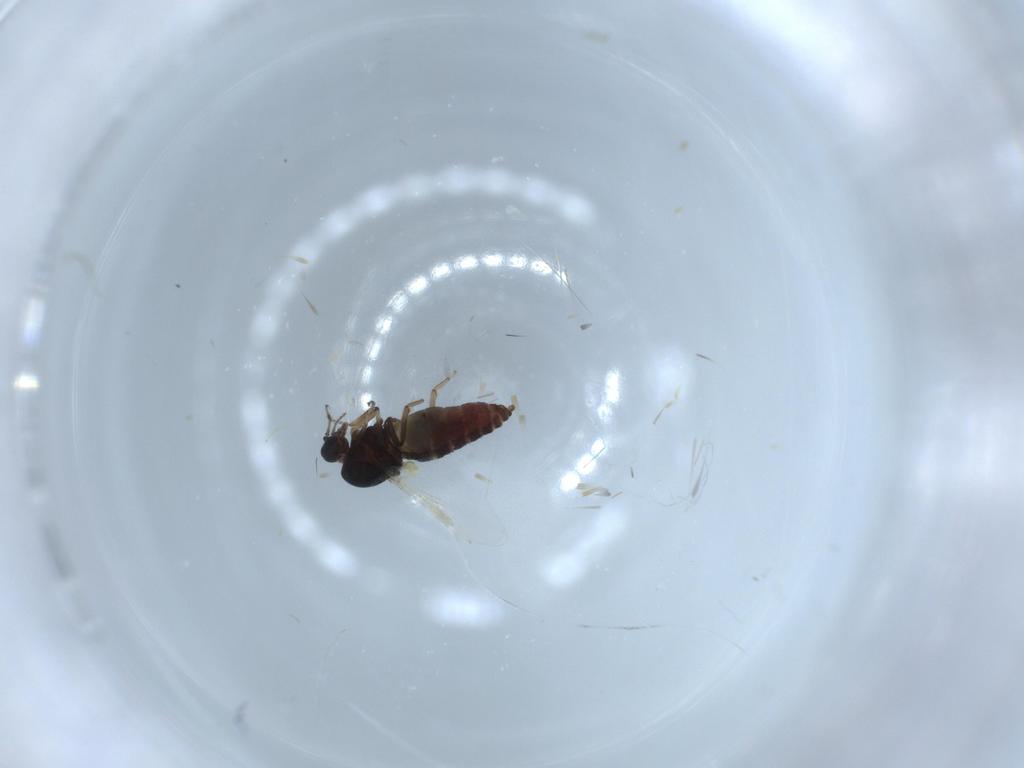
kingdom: Animalia
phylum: Arthropoda
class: Insecta
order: Diptera
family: Ceratopogonidae
